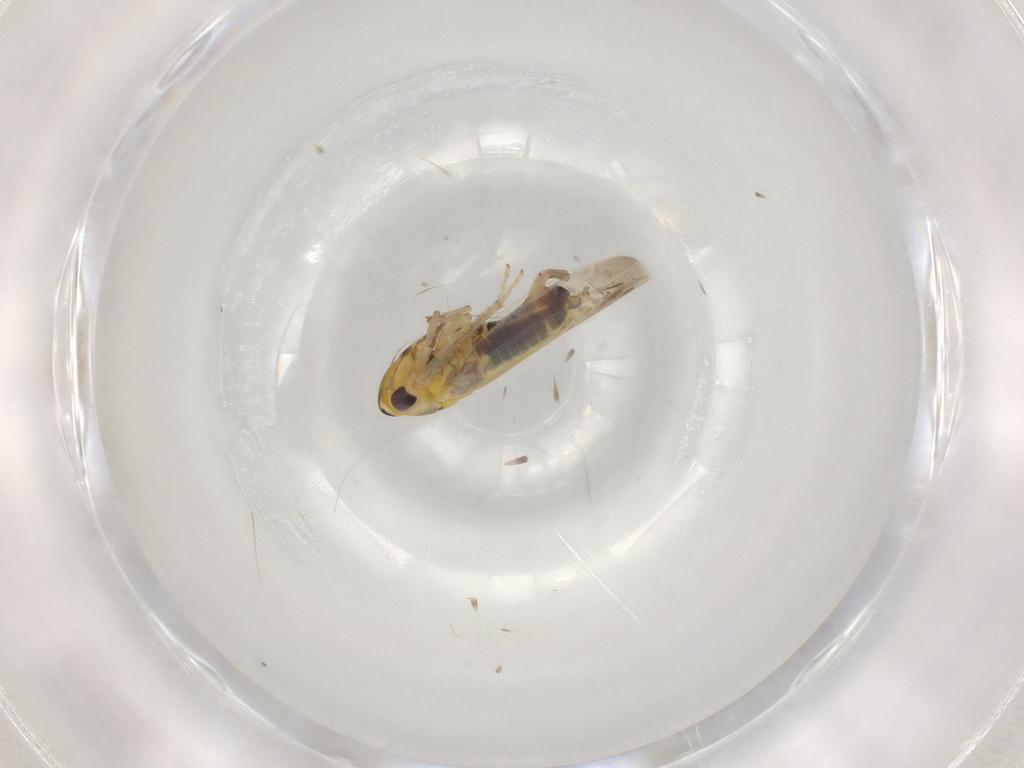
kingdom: Animalia
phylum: Arthropoda
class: Insecta
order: Hemiptera
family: Cicadellidae
